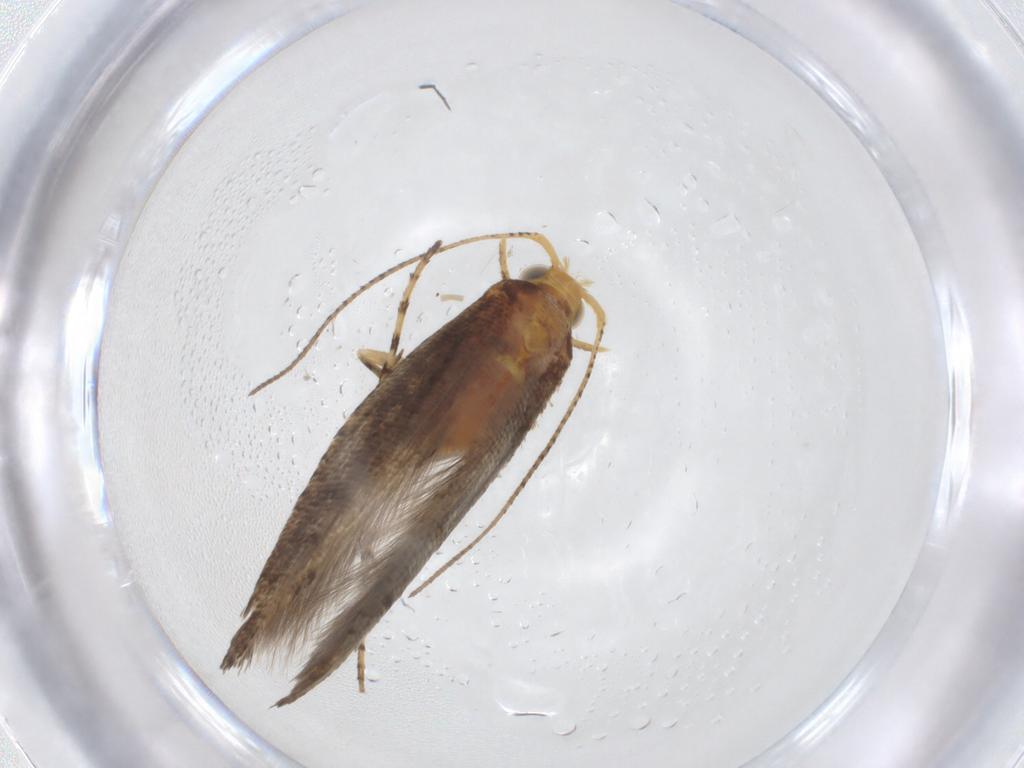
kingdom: Animalia
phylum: Arthropoda
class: Insecta
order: Lepidoptera
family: Argyresthiidae
